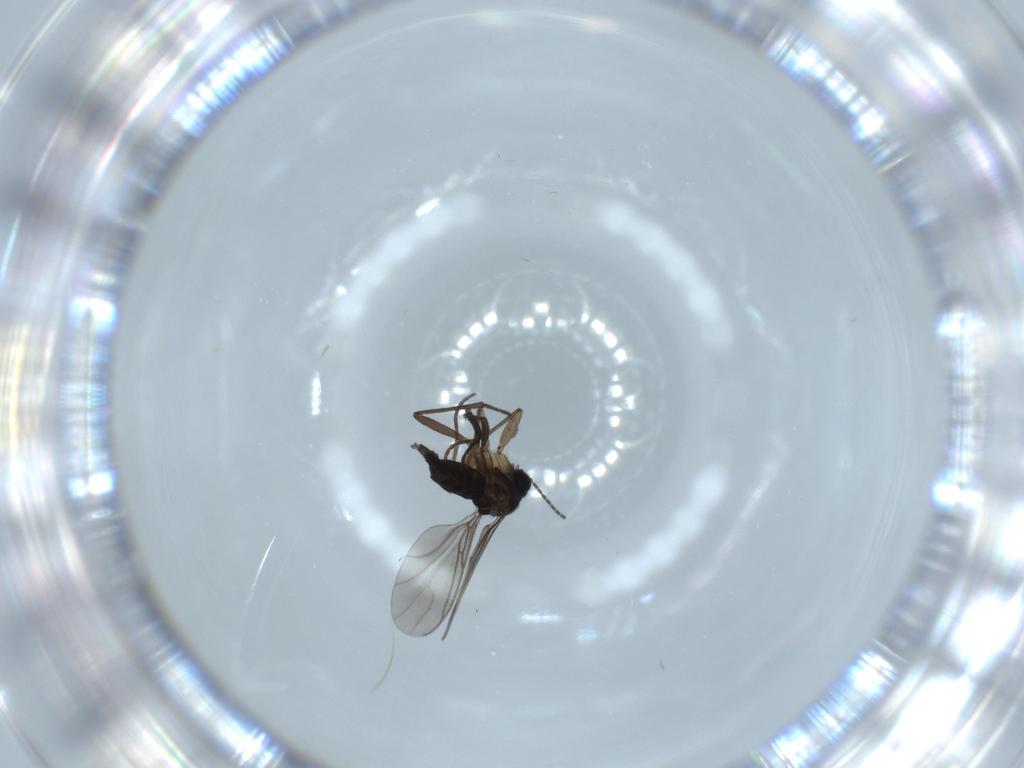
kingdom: Animalia
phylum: Arthropoda
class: Insecta
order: Diptera
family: Sciaridae
